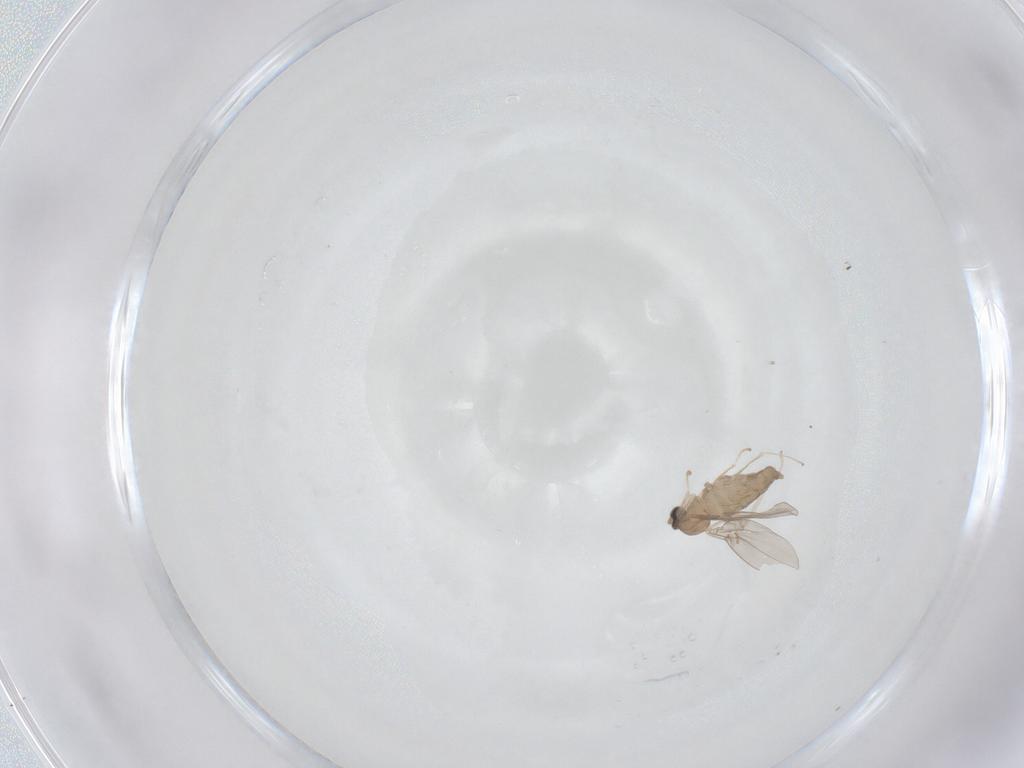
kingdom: Animalia
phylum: Arthropoda
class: Insecta
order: Diptera
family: Cecidomyiidae
